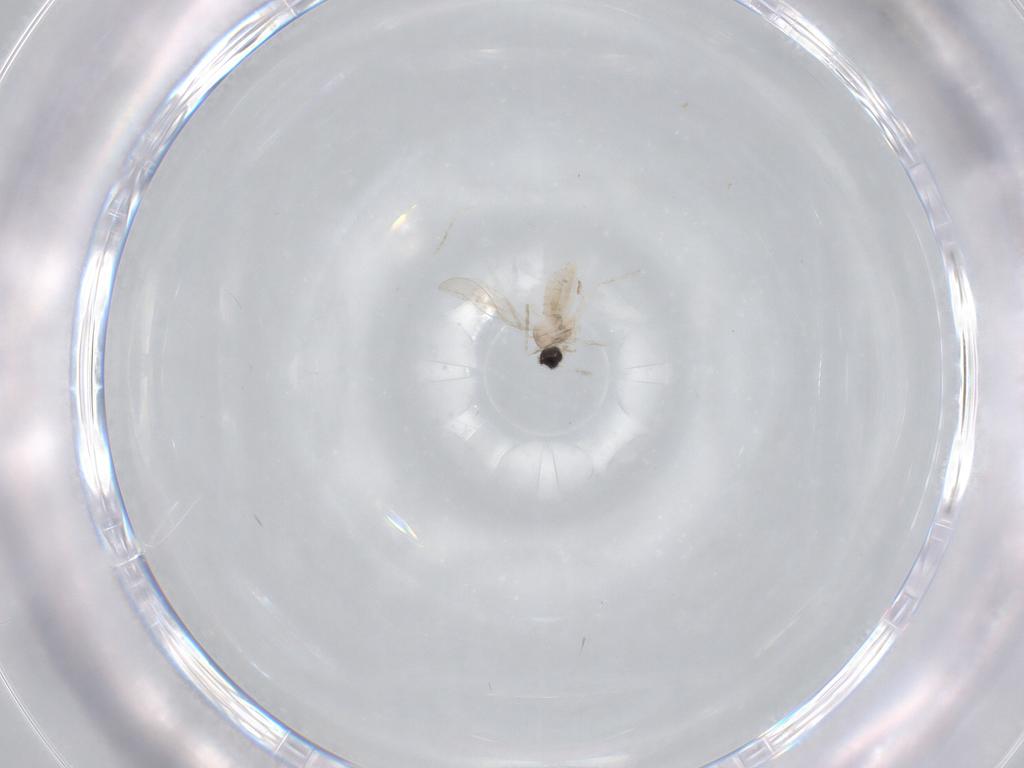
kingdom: Animalia
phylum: Arthropoda
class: Insecta
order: Diptera
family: Cecidomyiidae
